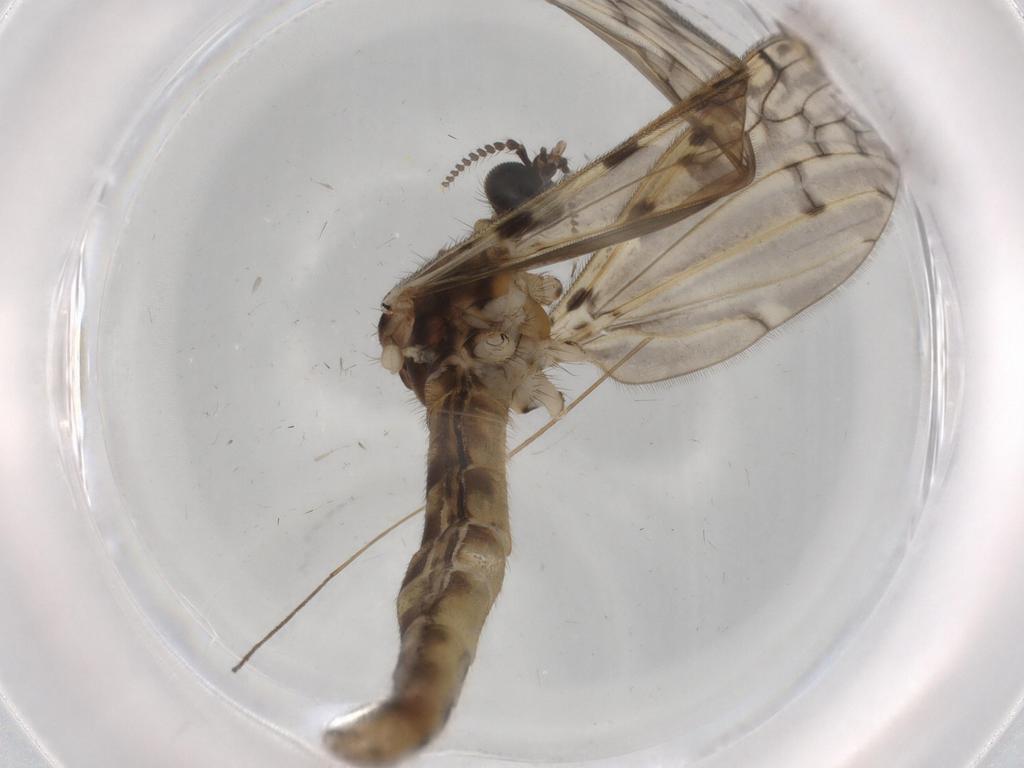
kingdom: Animalia
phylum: Arthropoda
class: Insecta
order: Diptera
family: Phoridae
